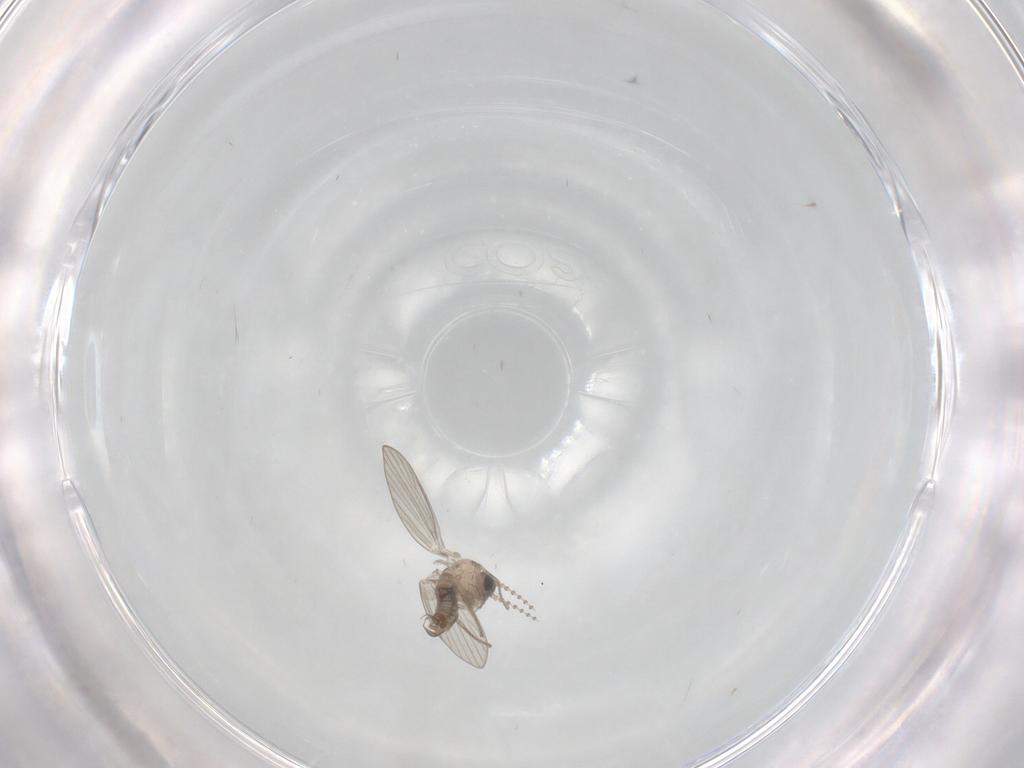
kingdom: Animalia
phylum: Arthropoda
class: Insecta
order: Diptera
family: Psychodidae
